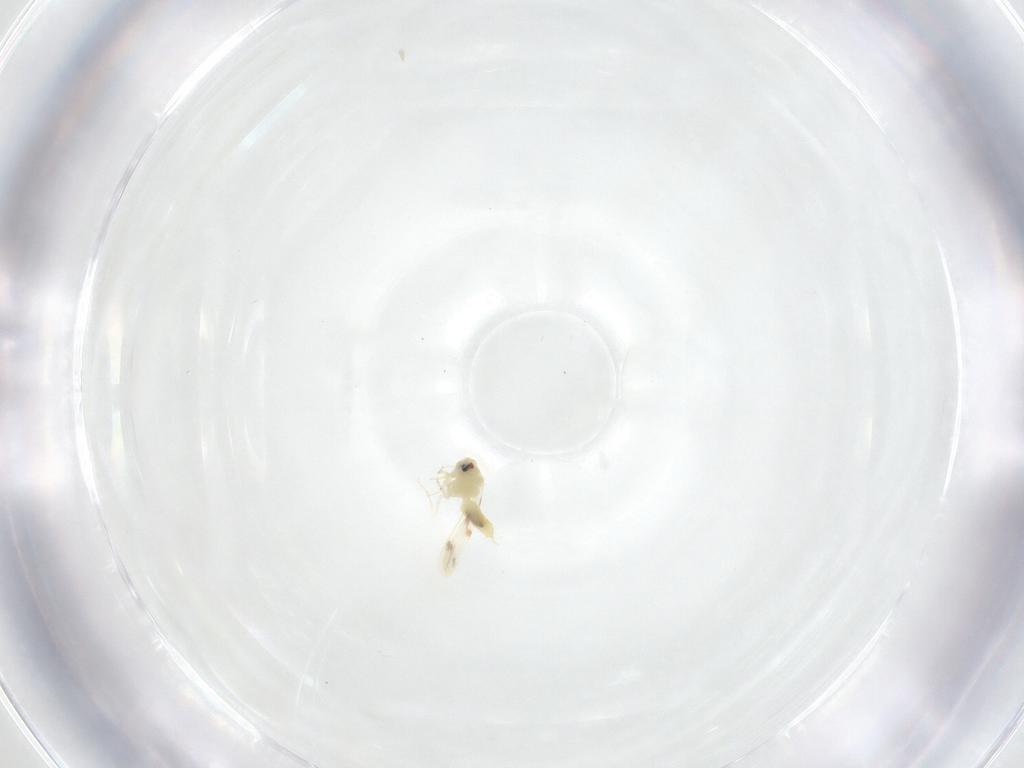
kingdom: Animalia
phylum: Arthropoda
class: Insecta
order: Hemiptera
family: Aleyrodidae
